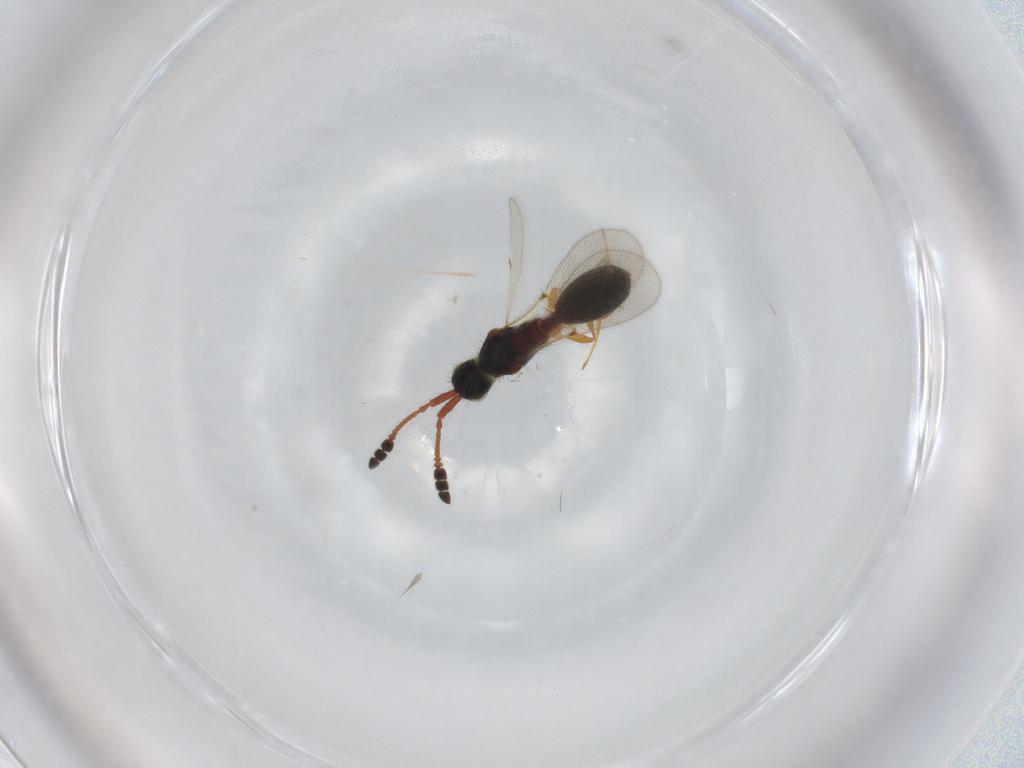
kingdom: Animalia
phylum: Arthropoda
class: Insecta
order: Hymenoptera
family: Diapriidae
